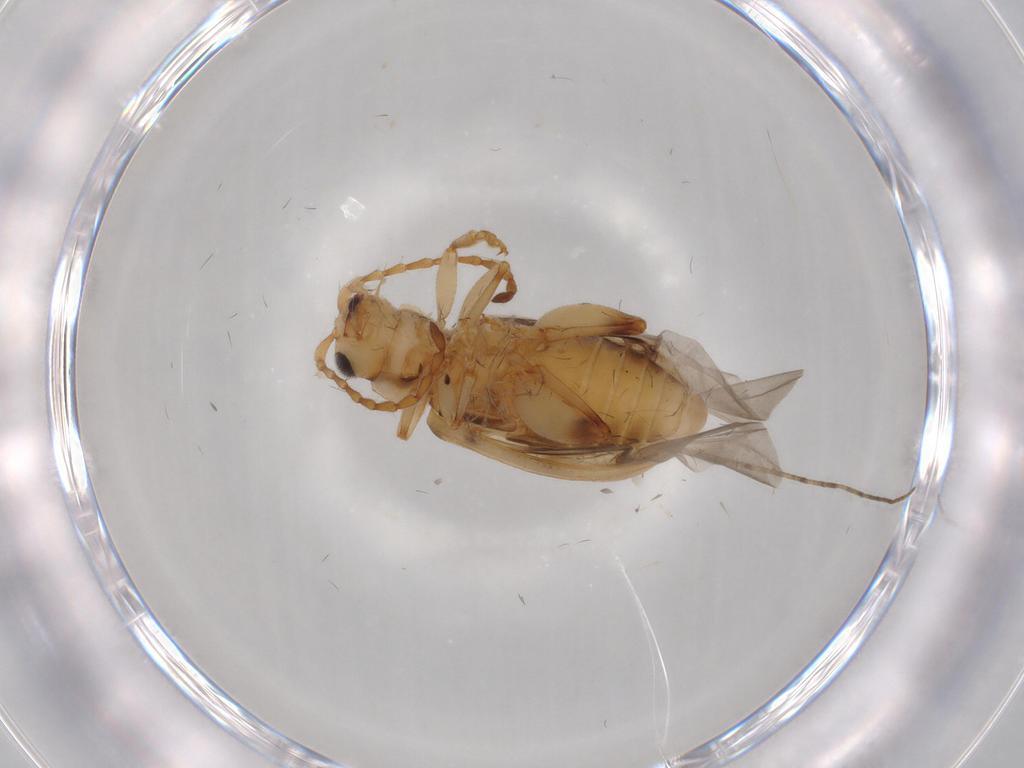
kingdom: Animalia
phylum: Arthropoda
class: Insecta
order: Coleoptera
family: Chrysomelidae
